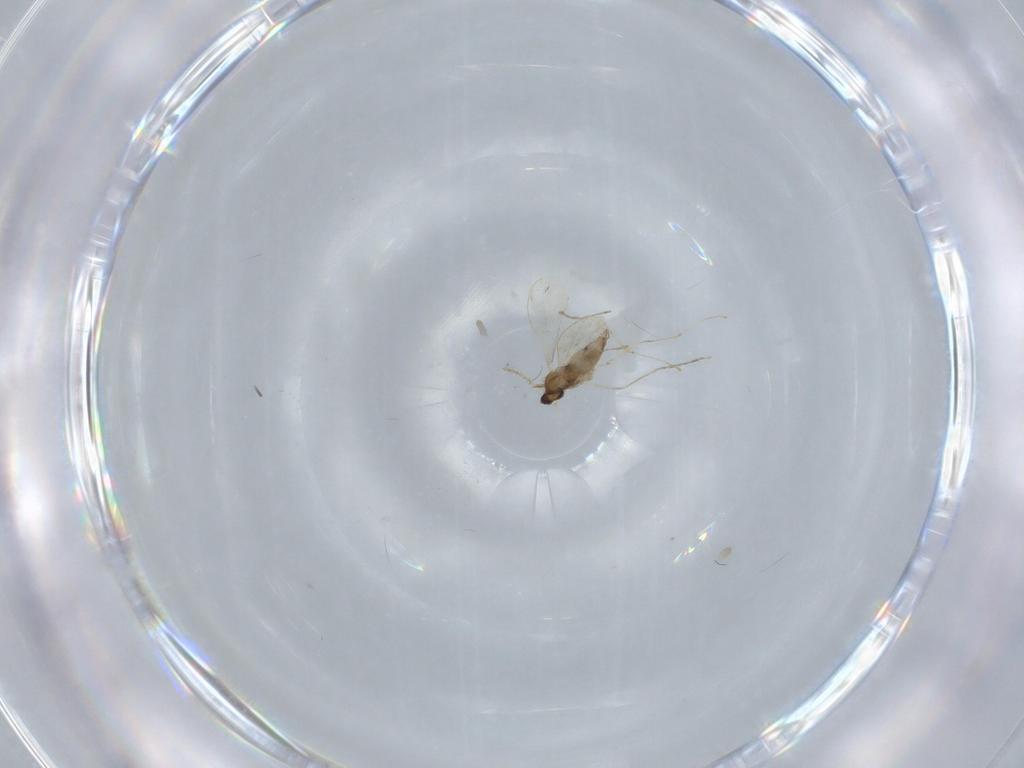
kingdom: Animalia
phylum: Arthropoda
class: Insecta
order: Diptera
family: Cecidomyiidae
